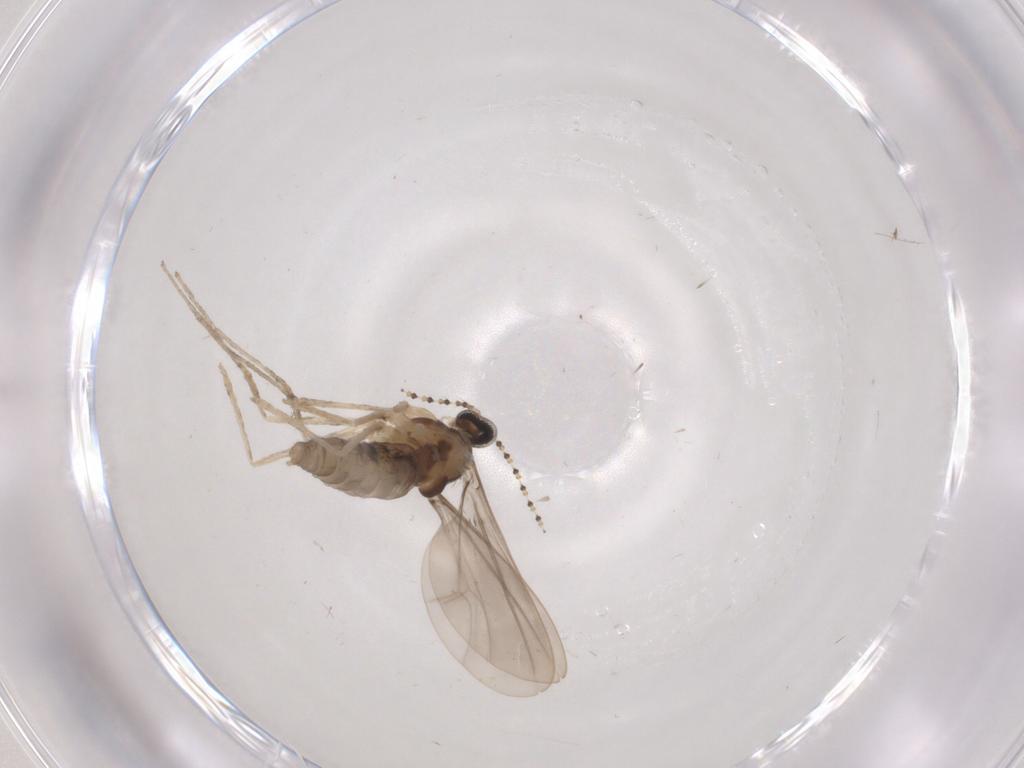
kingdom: Animalia
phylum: Arthropoda
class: Insecta
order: Diptera
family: Cecidomyiidae
